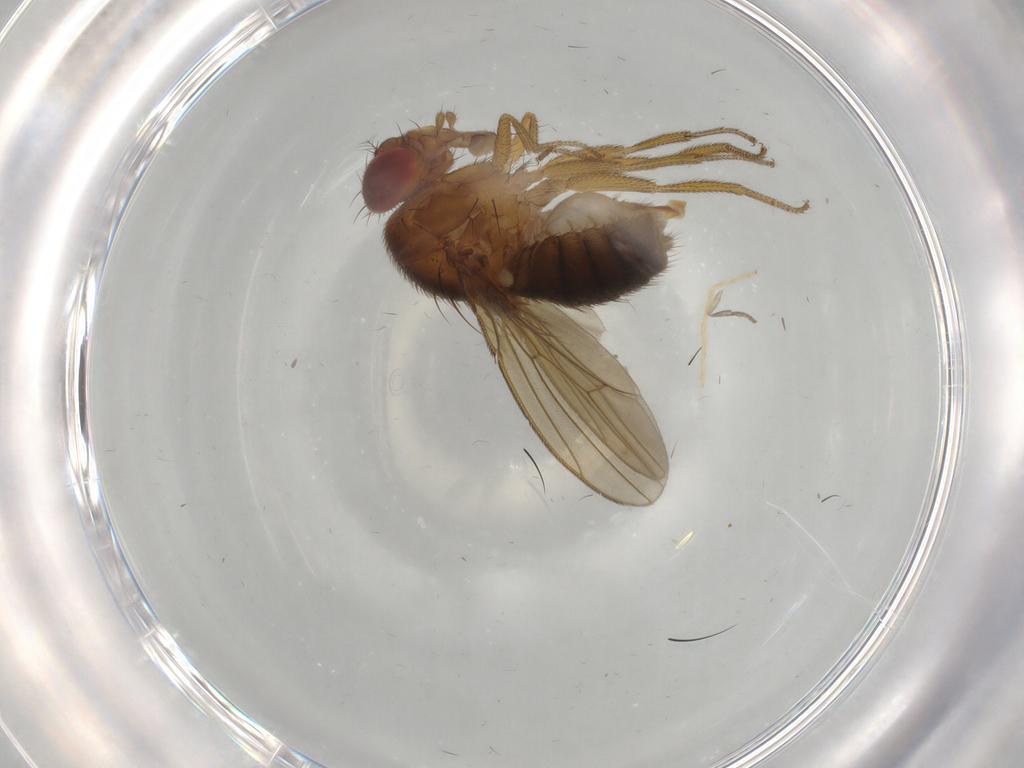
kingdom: Animalia
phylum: Arthropoda
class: Insecta
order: Diptera
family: Drosophilidae
